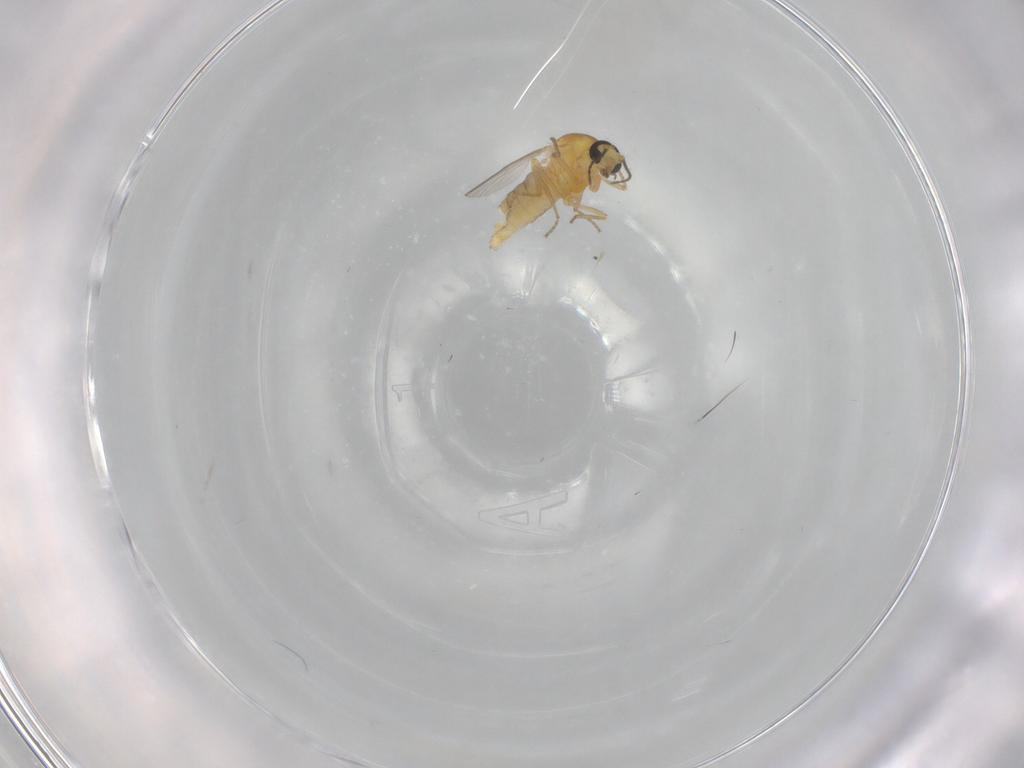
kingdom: Animalia
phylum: Arthropoda
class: Insecta
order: Diptera
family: Ceratopogonidae
